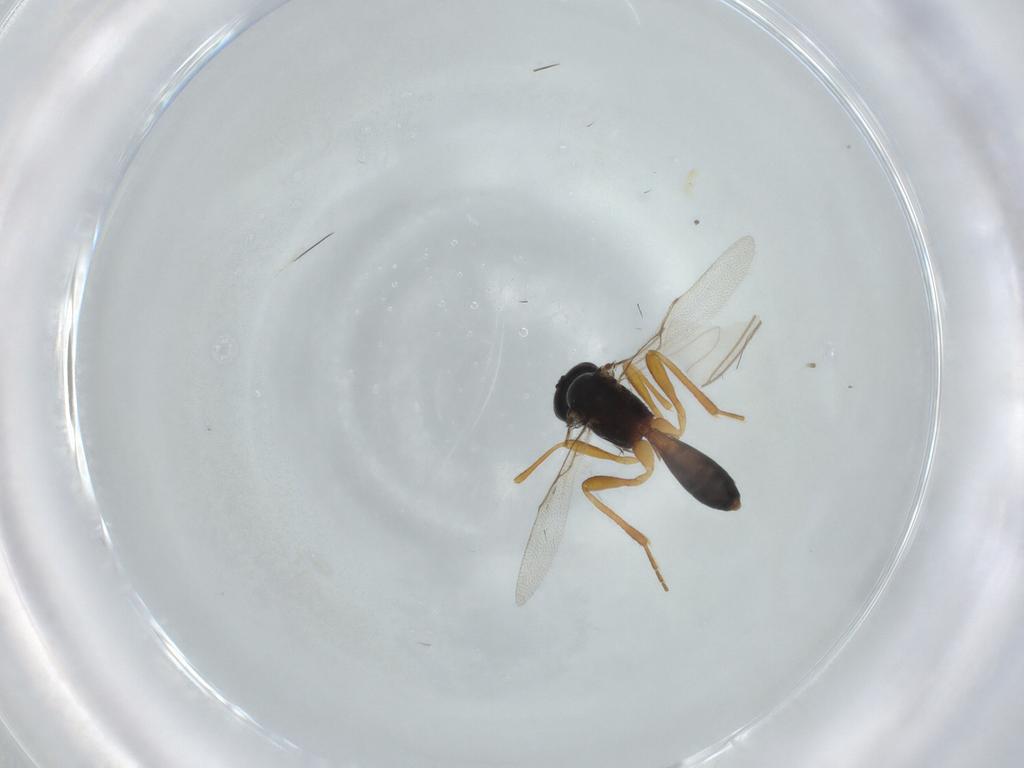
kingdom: Animalia
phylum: Arthropoda
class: Insecta
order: Hymenoptera
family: Braconidae
